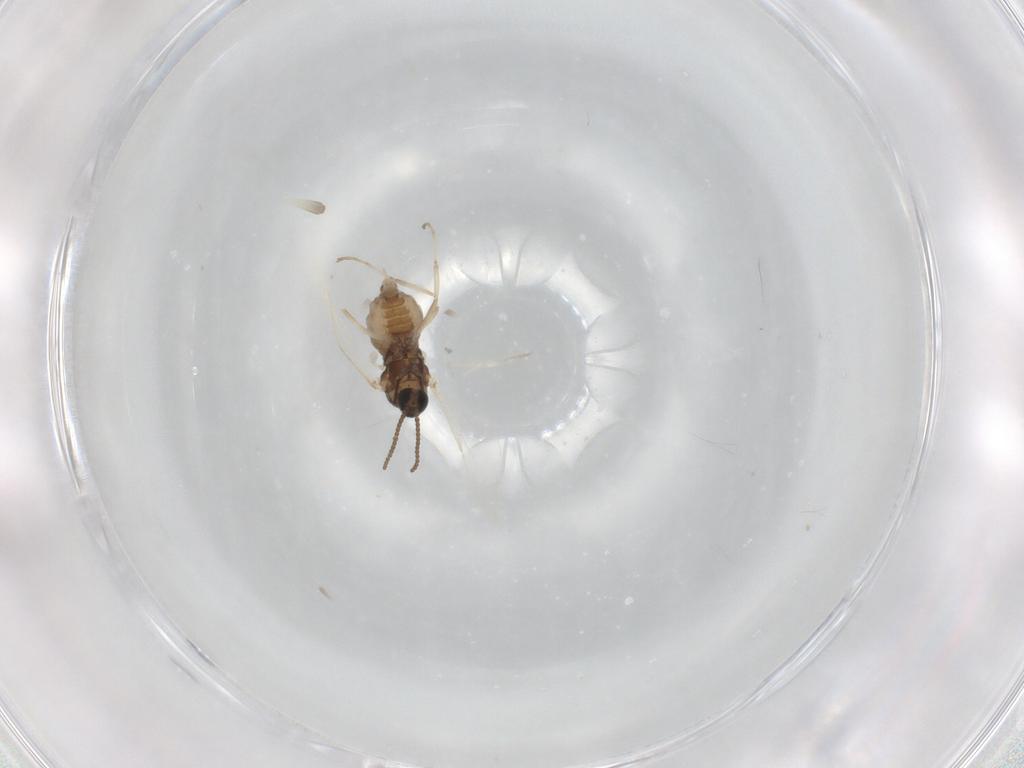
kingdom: Animalia
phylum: Arthropoda
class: Insecta
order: Diptera
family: Cecidomyiidae
